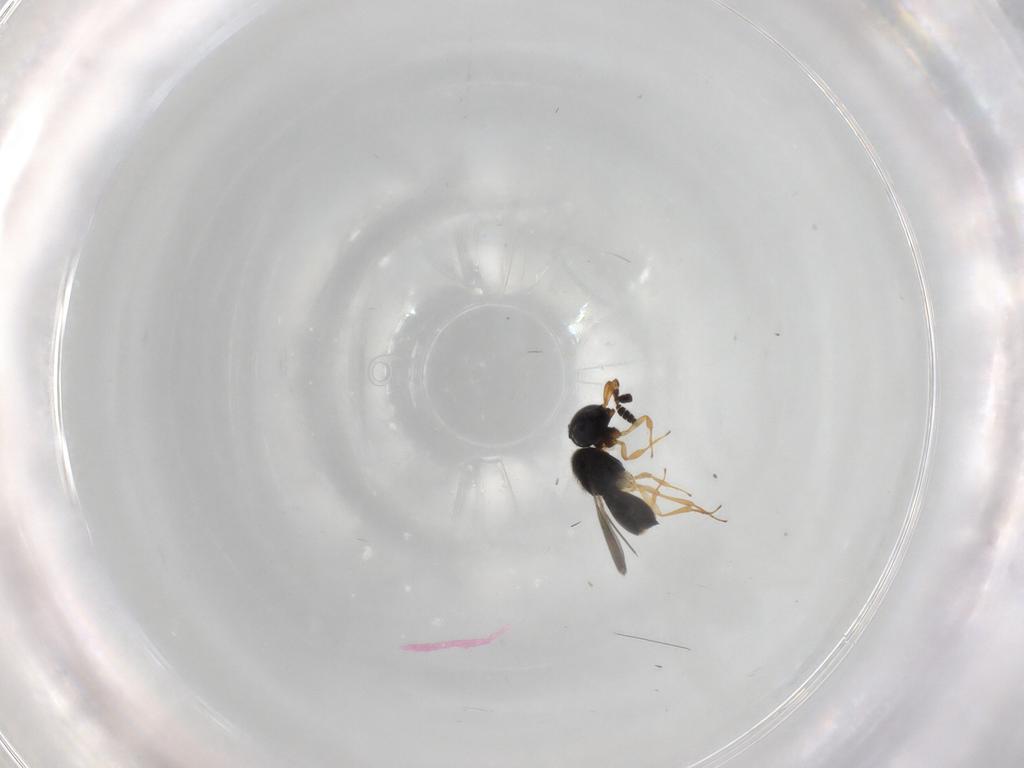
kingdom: Animalia
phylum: Arthropoda
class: Insecta
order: Hymenoptera
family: Scelionidae
